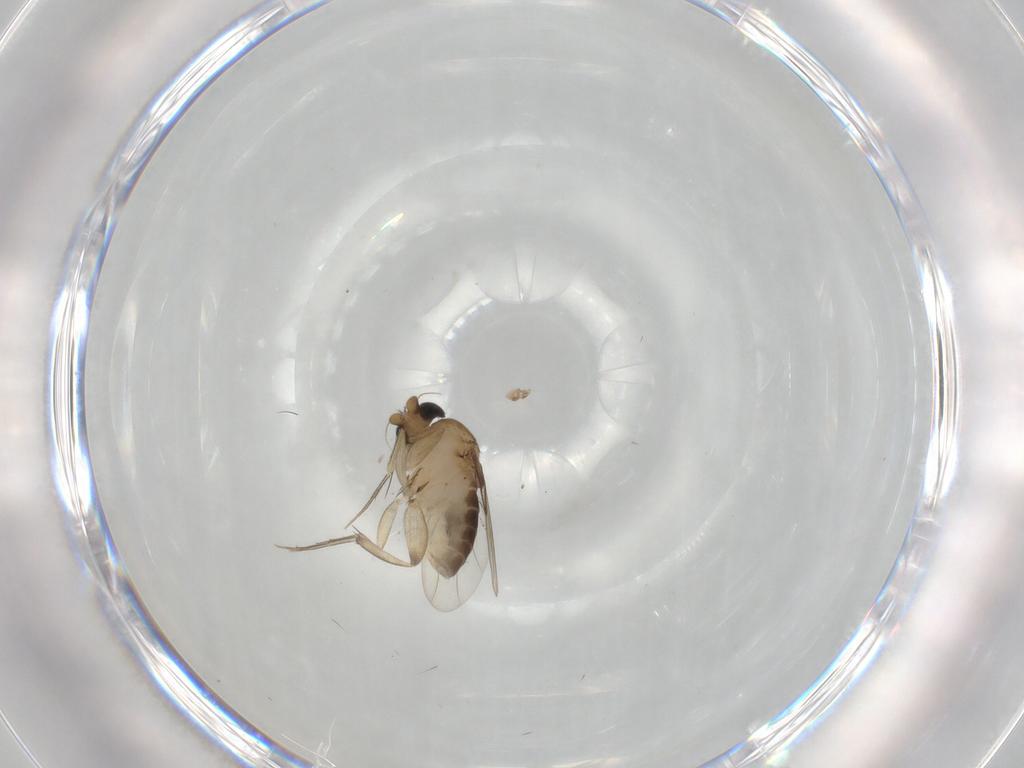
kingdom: Animalia
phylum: Arthropoda
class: Insecta
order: Diptera
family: Phoridae
